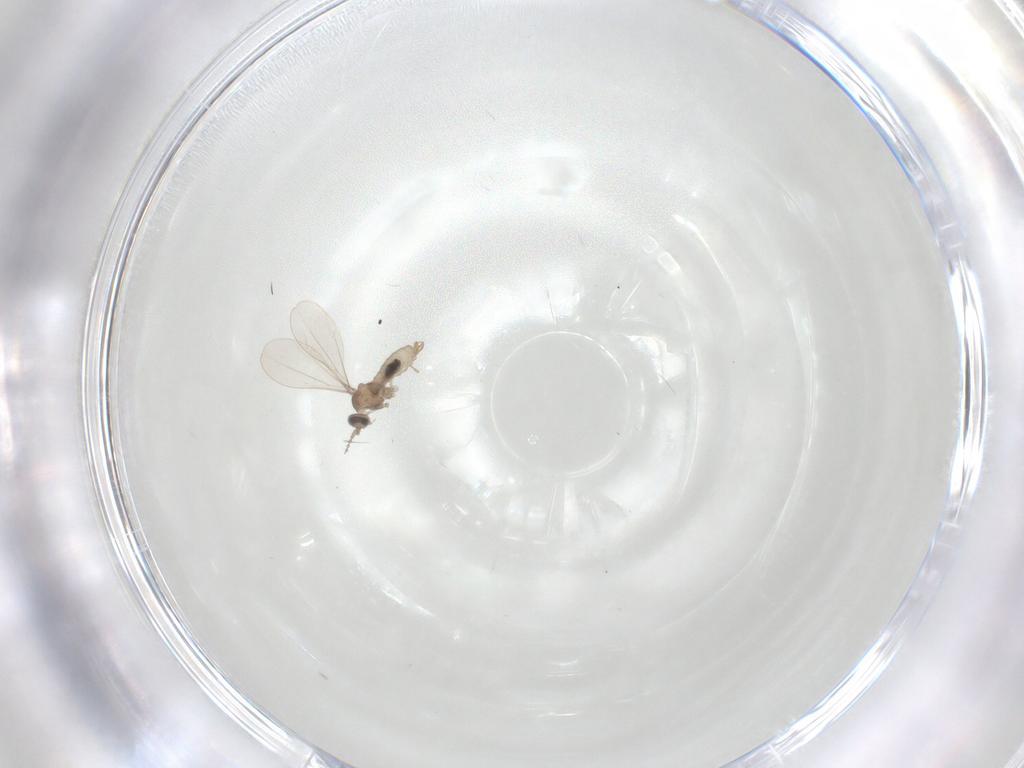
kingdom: Animalia
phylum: Arthropoda
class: Insecta
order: Diptera
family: Cecidomyiidae
